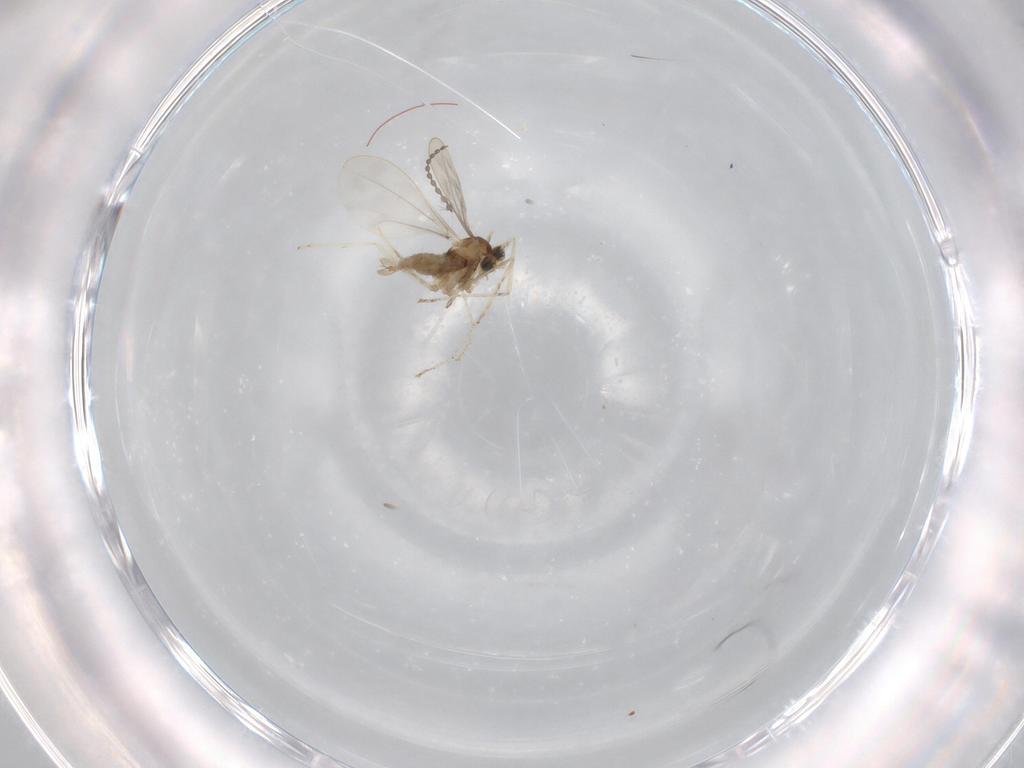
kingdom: Animalia
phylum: Arthropoda
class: Insecta
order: Diptera
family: Cecidomyiidae
